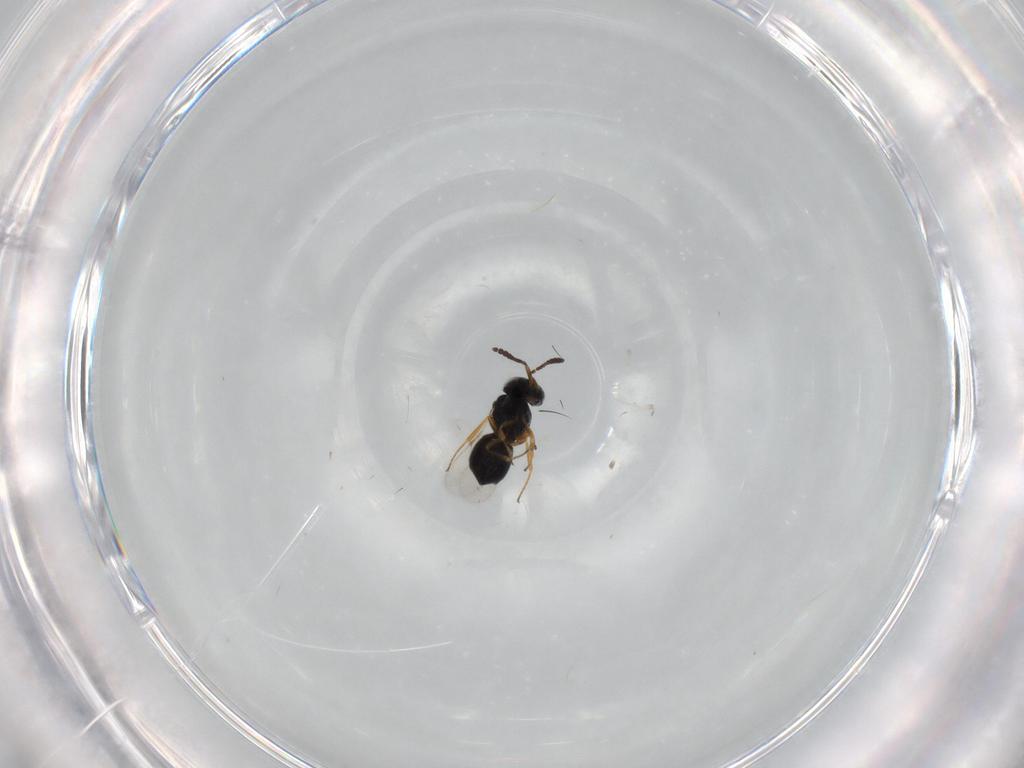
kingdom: Animalia
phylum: Arthropoda
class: Insecta
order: Hymenoptera
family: Scelionidae
